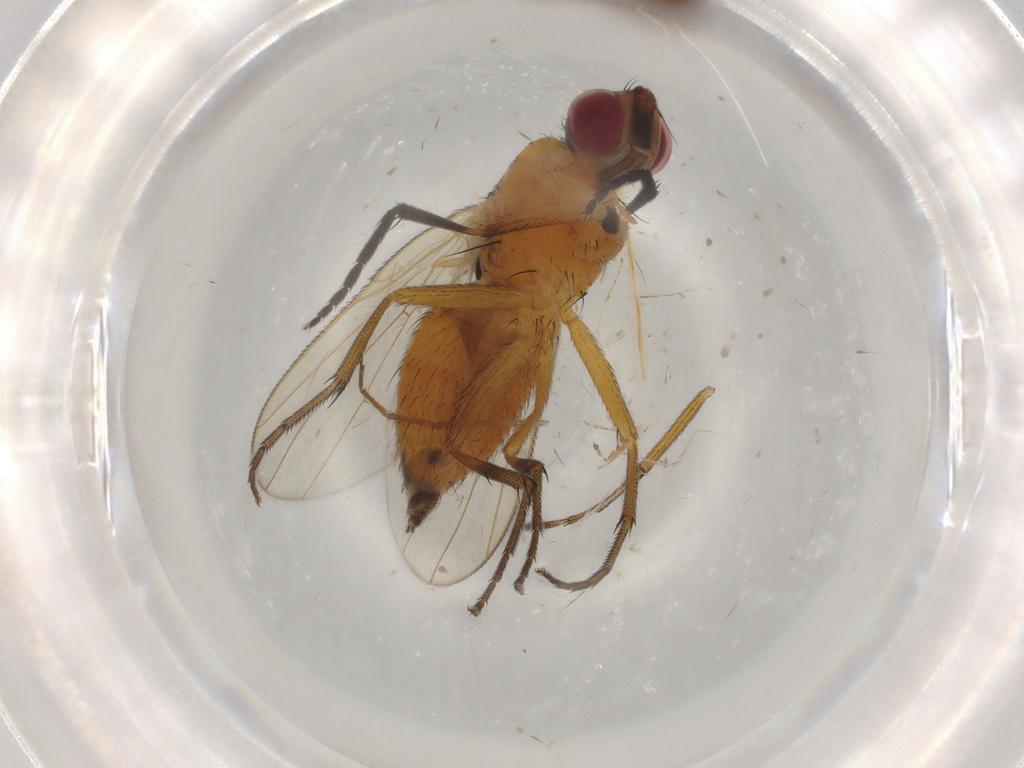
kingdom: Animalia
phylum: Arthropoda
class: Insecta
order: Diptera
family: Periscelididae
